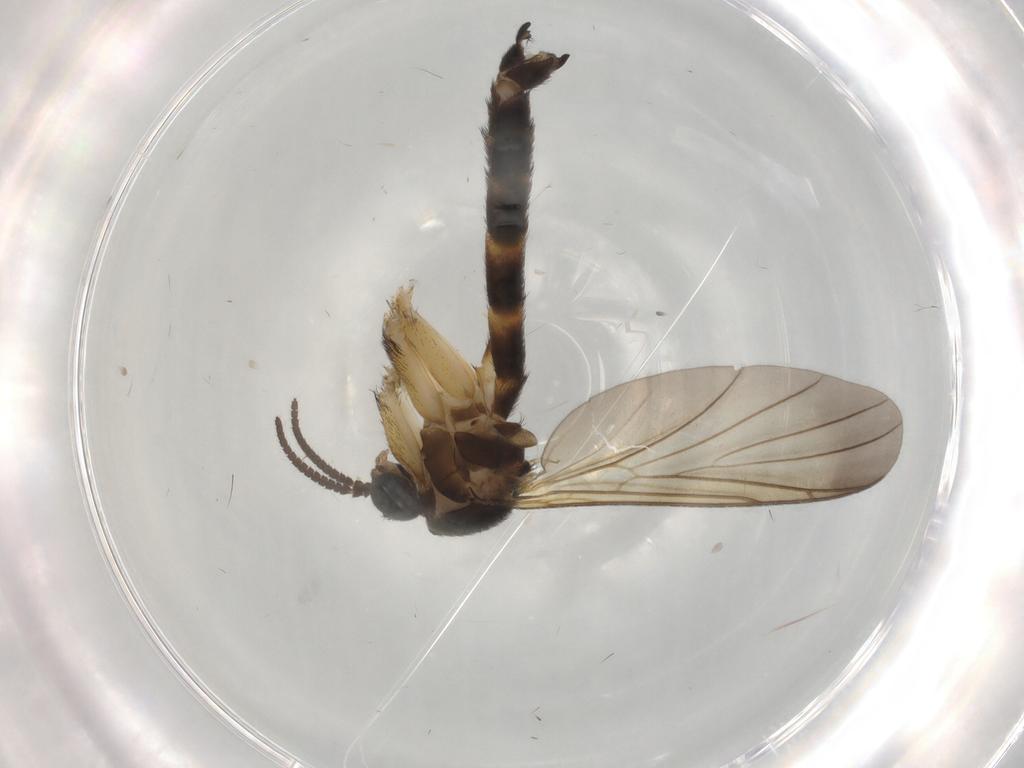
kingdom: Animalia
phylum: Arthropoda
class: Insecta
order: Diptera
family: Keroplatidae
